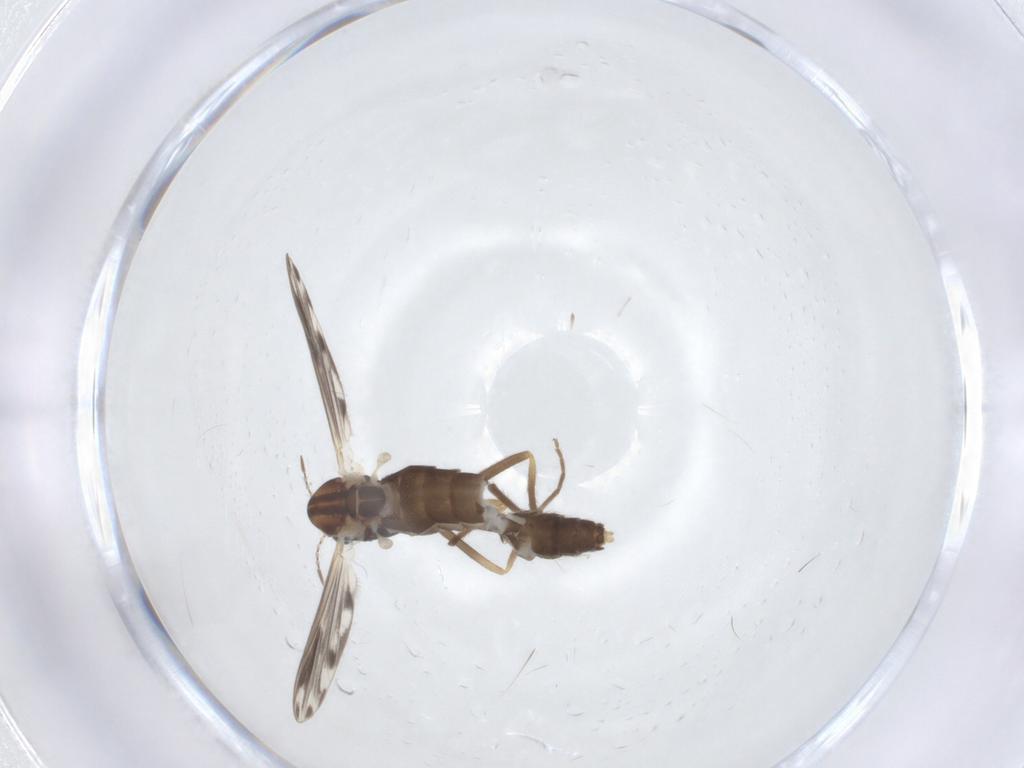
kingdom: Animalia
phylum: Arthropoda
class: Insecta
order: Diptera
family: Chironomidae
